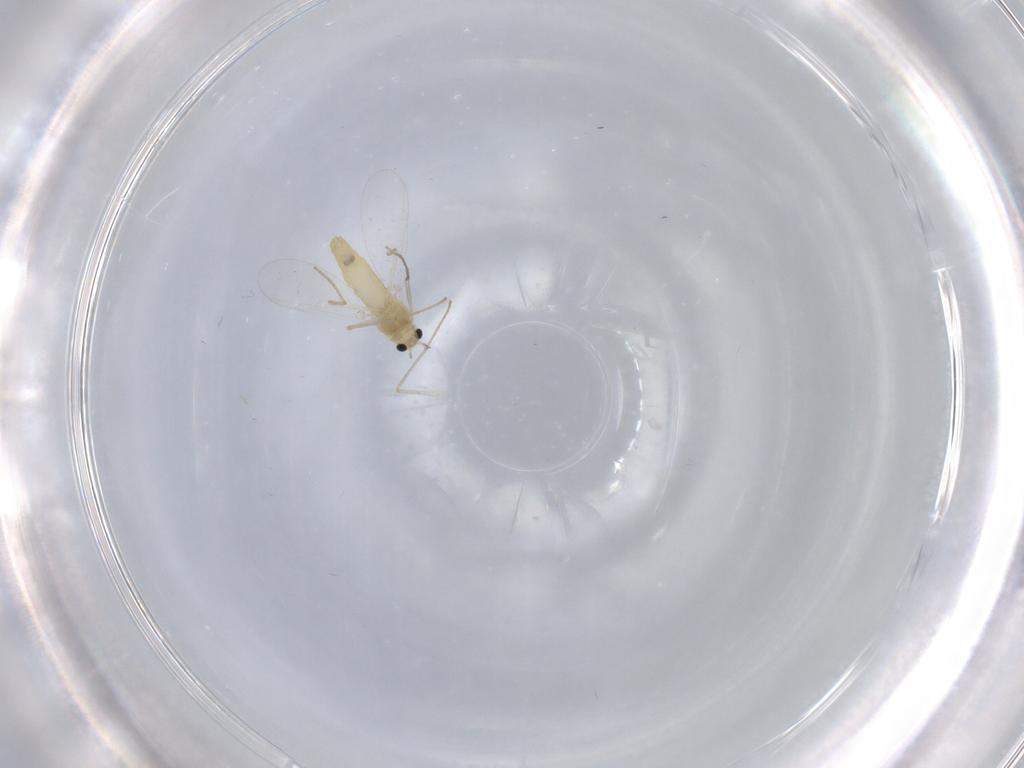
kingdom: Animalia
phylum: Arthropoda
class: Insecta
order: Diptera
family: Chironomidae
